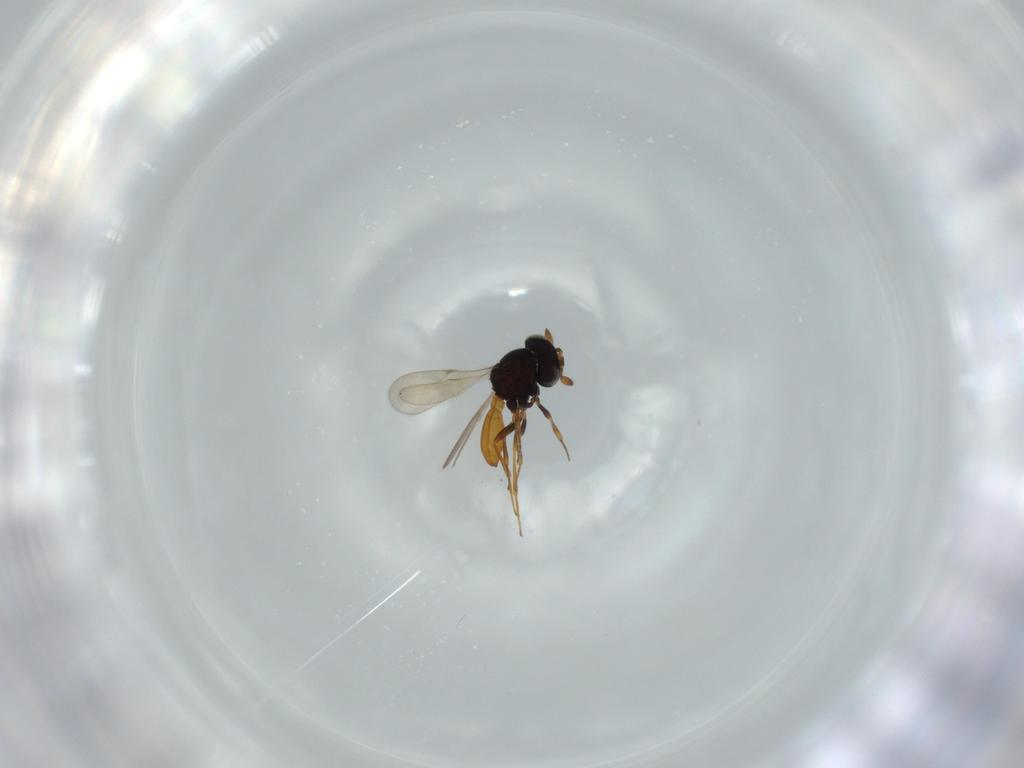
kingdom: Animalia
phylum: Arthropoda
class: Insecta
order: Hymenoptera
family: Scelionidae
